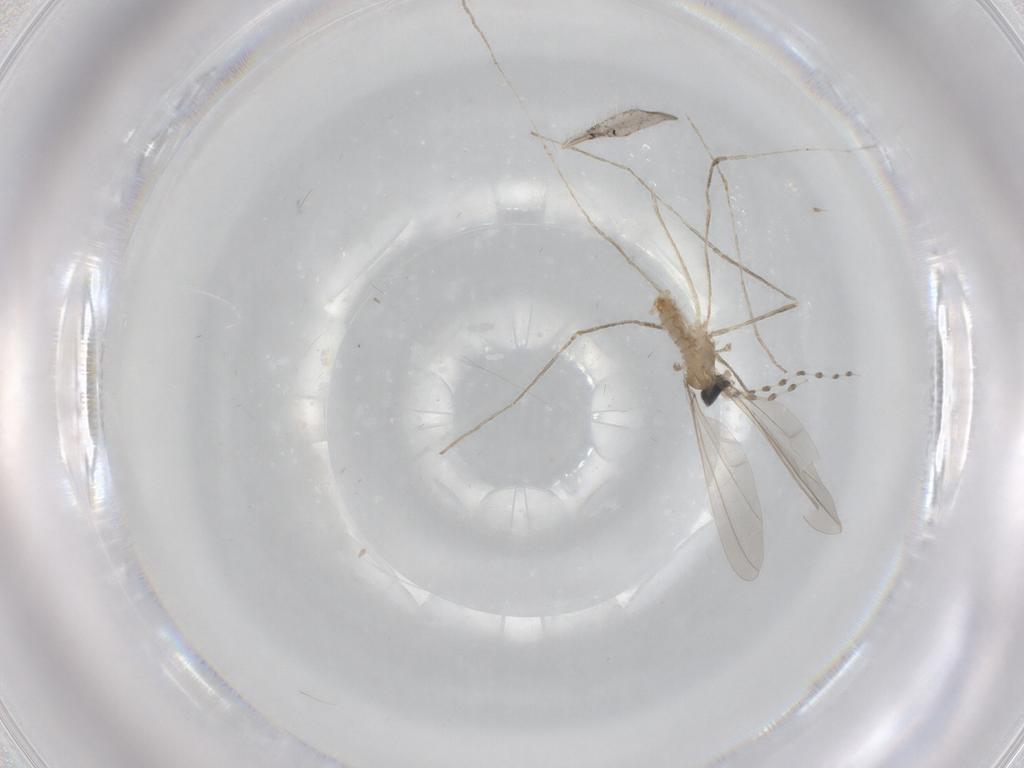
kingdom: Animalia
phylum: Arthropoda
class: Insecta
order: Diptera
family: Cecidomyiidae
